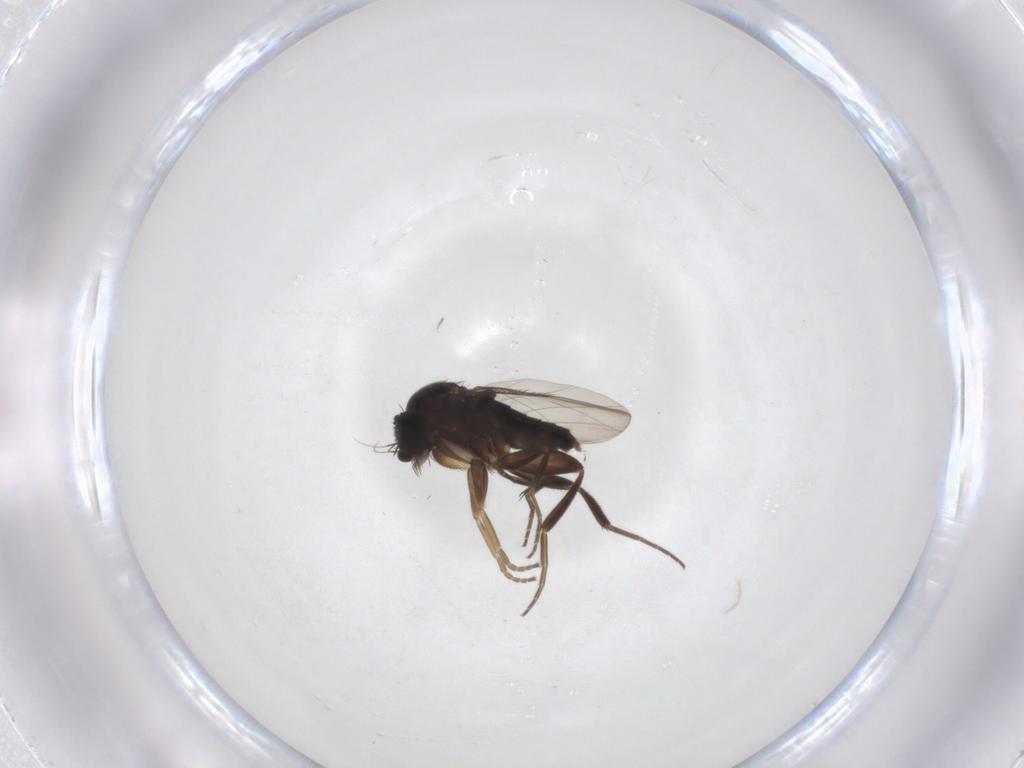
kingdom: Animalia
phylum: Arthropoda
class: Insecta
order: Diptera
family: Phoridae
